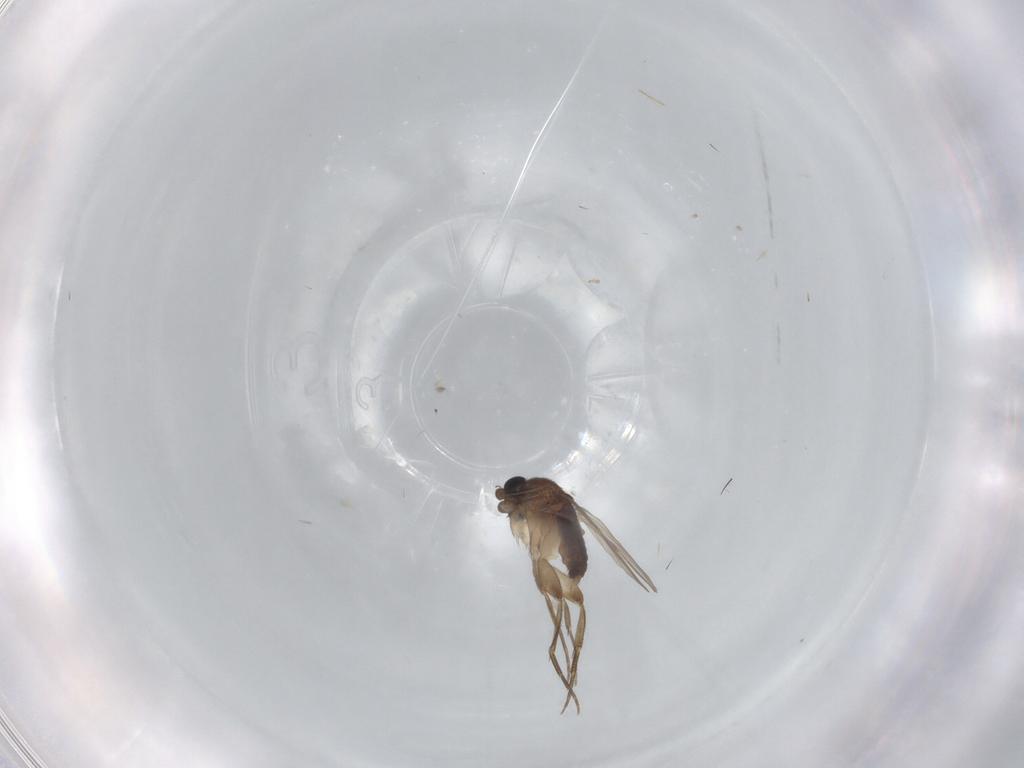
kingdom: Animalia
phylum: Arthropoda
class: Insecta
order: Diptera
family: Phoridae
